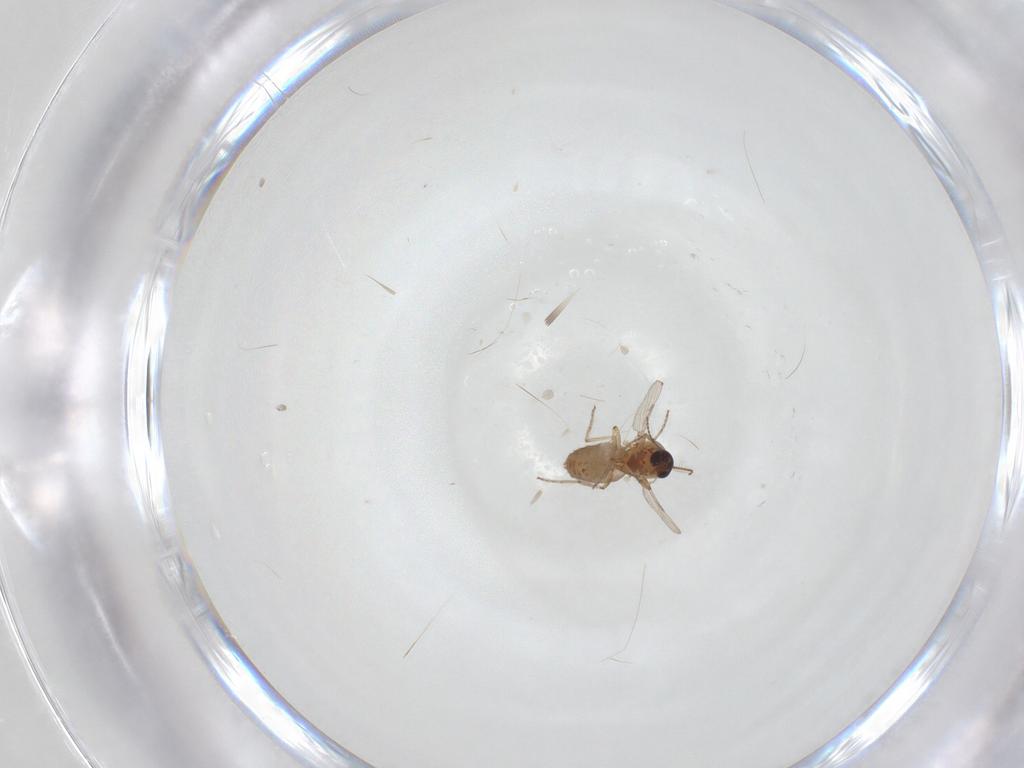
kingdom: Animalia
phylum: Arthropoda
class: Insecta
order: Diptera
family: Ceratopogonidae
